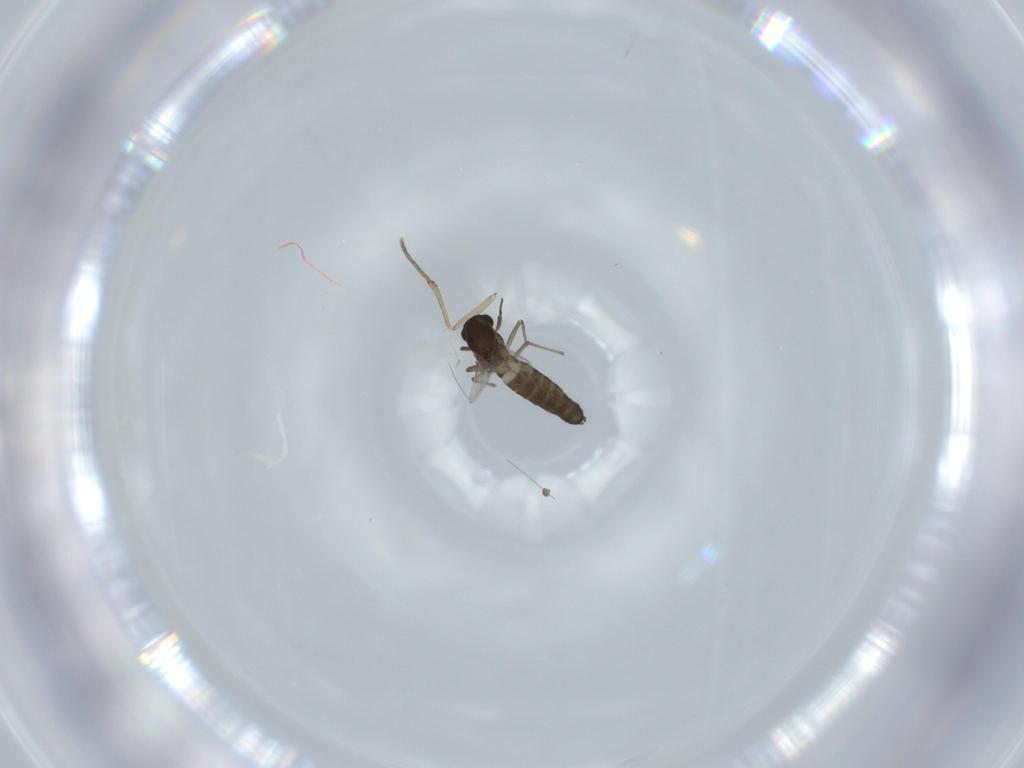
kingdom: Animalia
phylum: Arthropoda
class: Insecta
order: Diptera
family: Chironomidae
